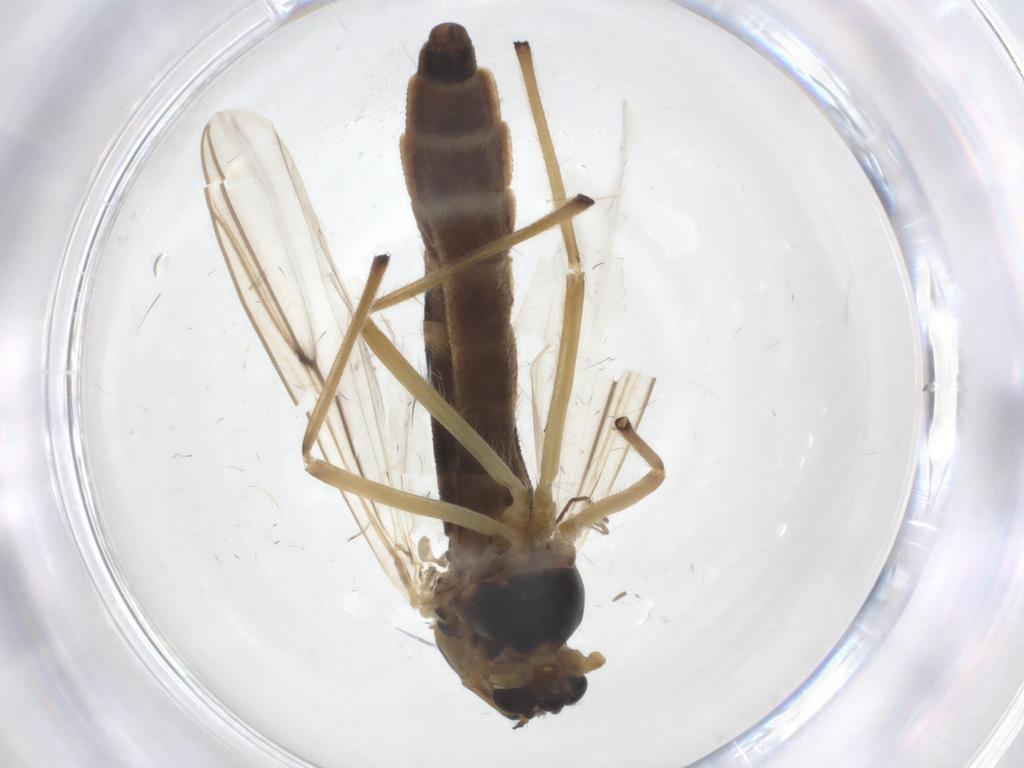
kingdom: Animalia
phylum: Arthropoda
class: Insecta
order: Diptera
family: Chironomidae
